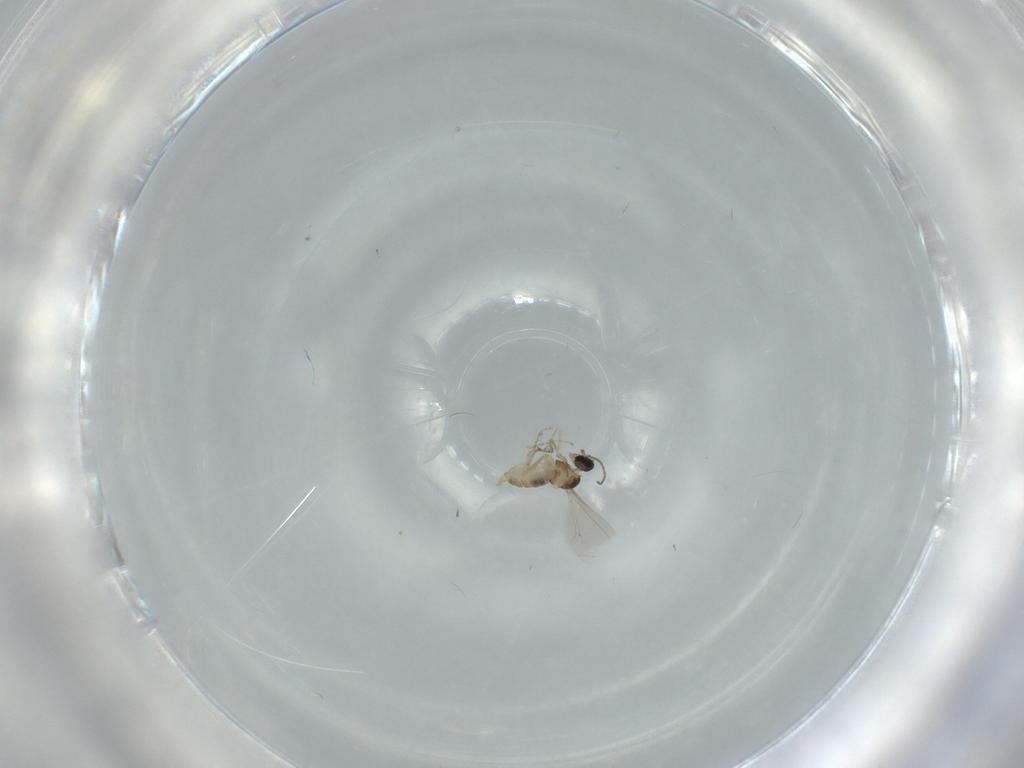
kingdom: Animalia
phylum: Arthropoda
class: Insecta
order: Diptera
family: Cecidomyiidae
